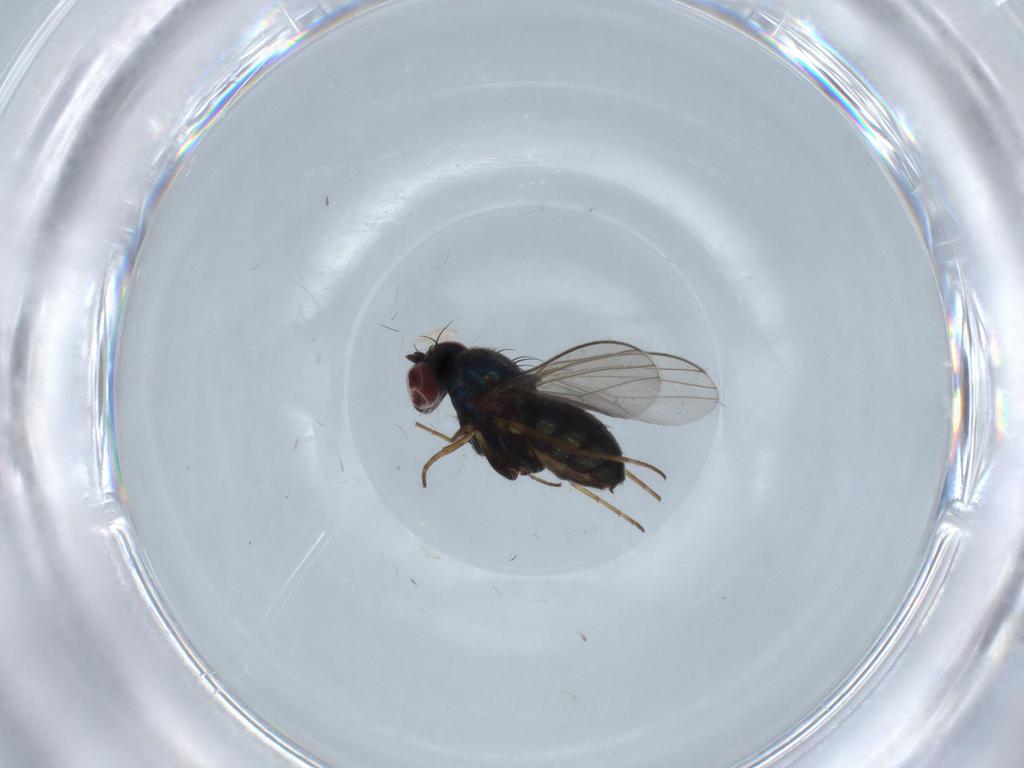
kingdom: Animalia
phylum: Arthropoda
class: Insecta
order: Diptera
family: Dolichopodidae
